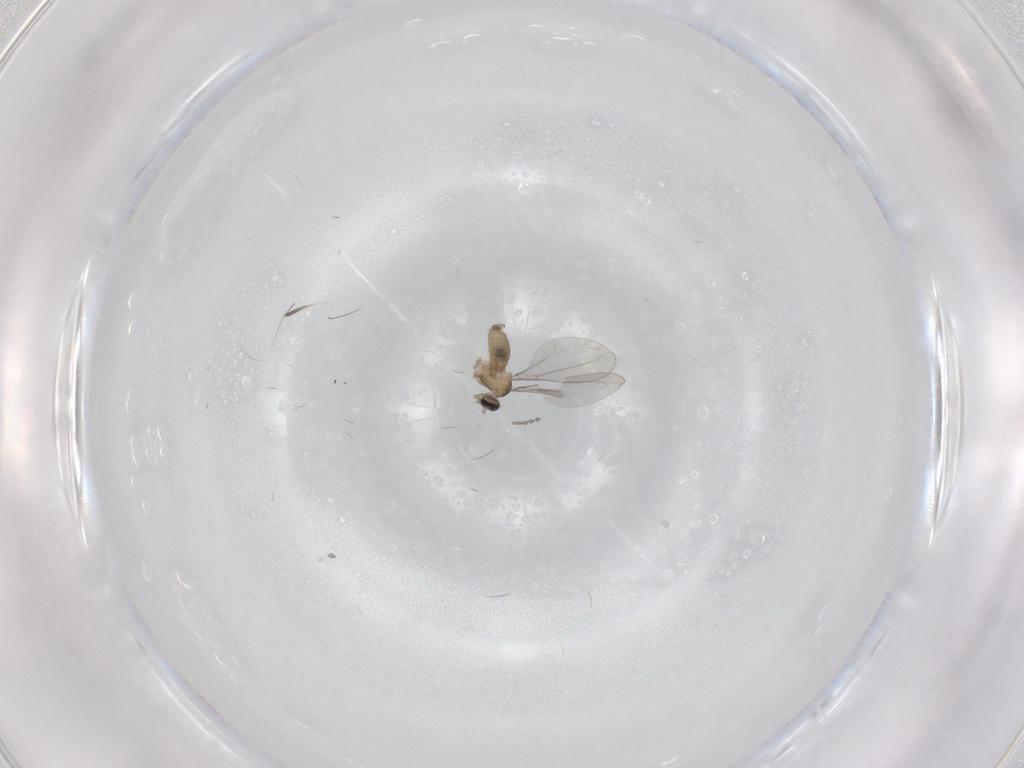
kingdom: Animalia
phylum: Arthropoda
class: Insecta
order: Diptera
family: Cecidomyiidae
